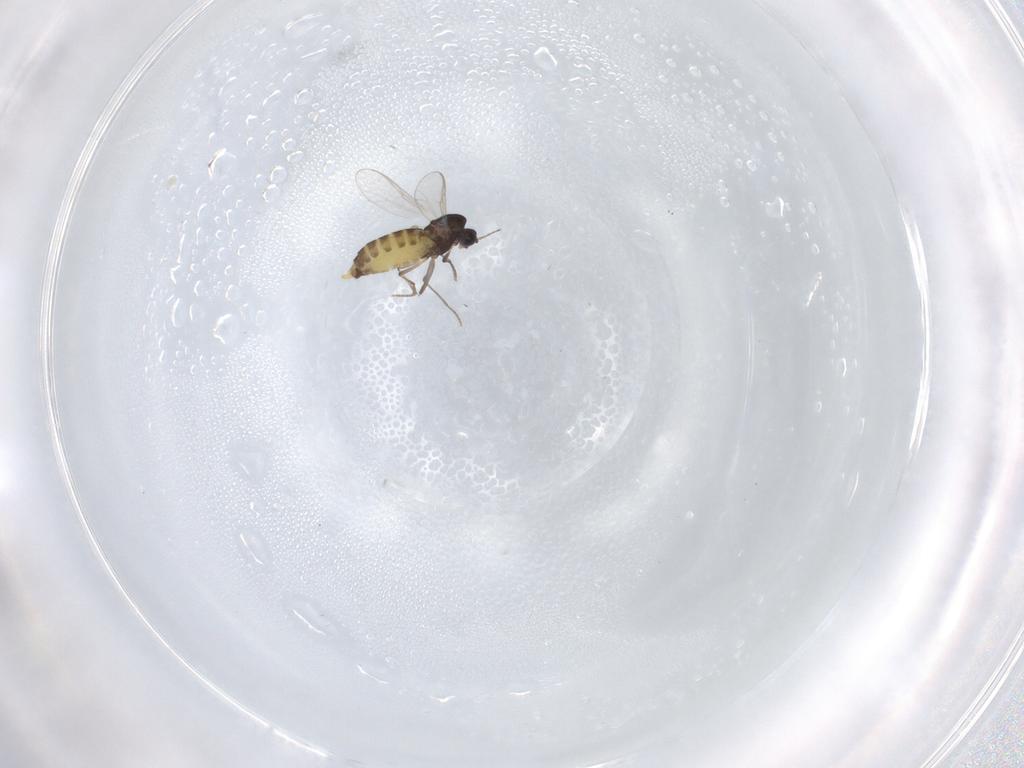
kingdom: Animalia
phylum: Arthropoda
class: Insecta
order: Diptera
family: Chironomidae
